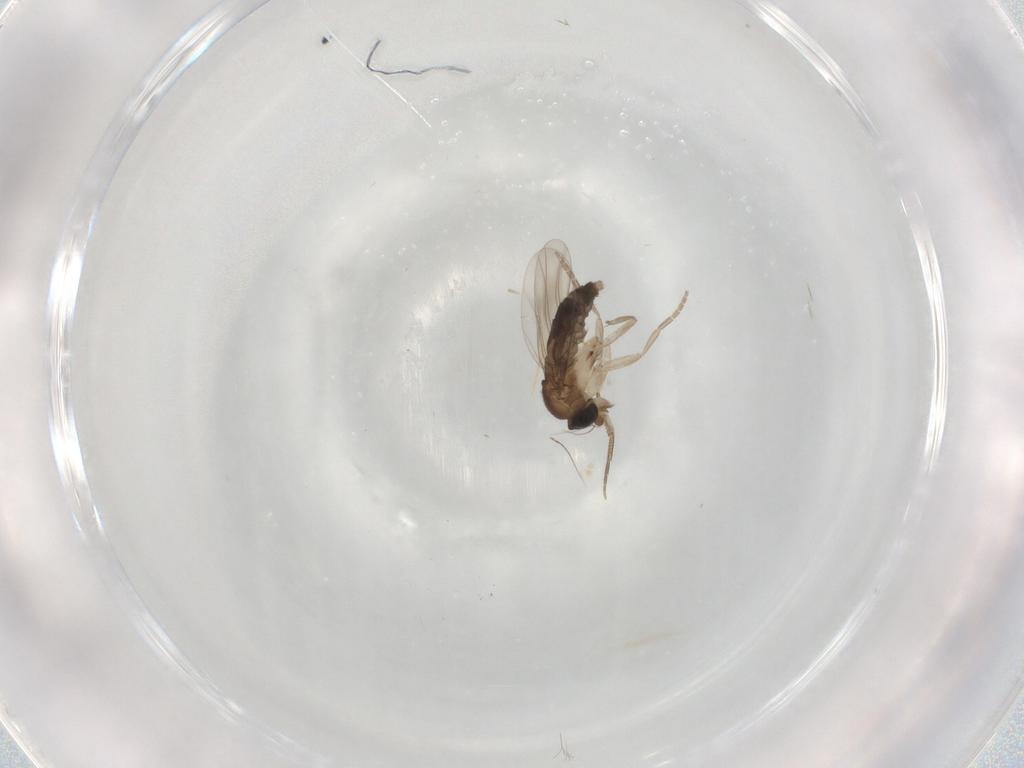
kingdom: Animalia
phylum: Arthropoda
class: Insecta
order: Diptera
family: Phoridae
